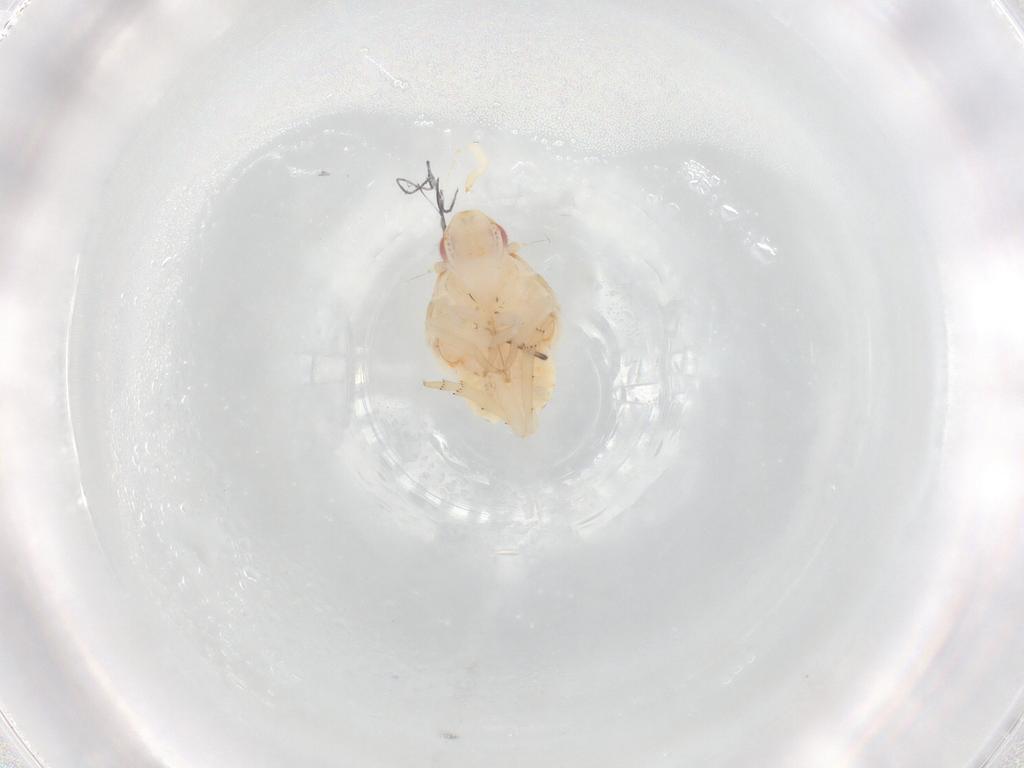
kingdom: Animalia
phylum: Arthropoda
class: Insecta
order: Hemiptera
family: Flatidae
